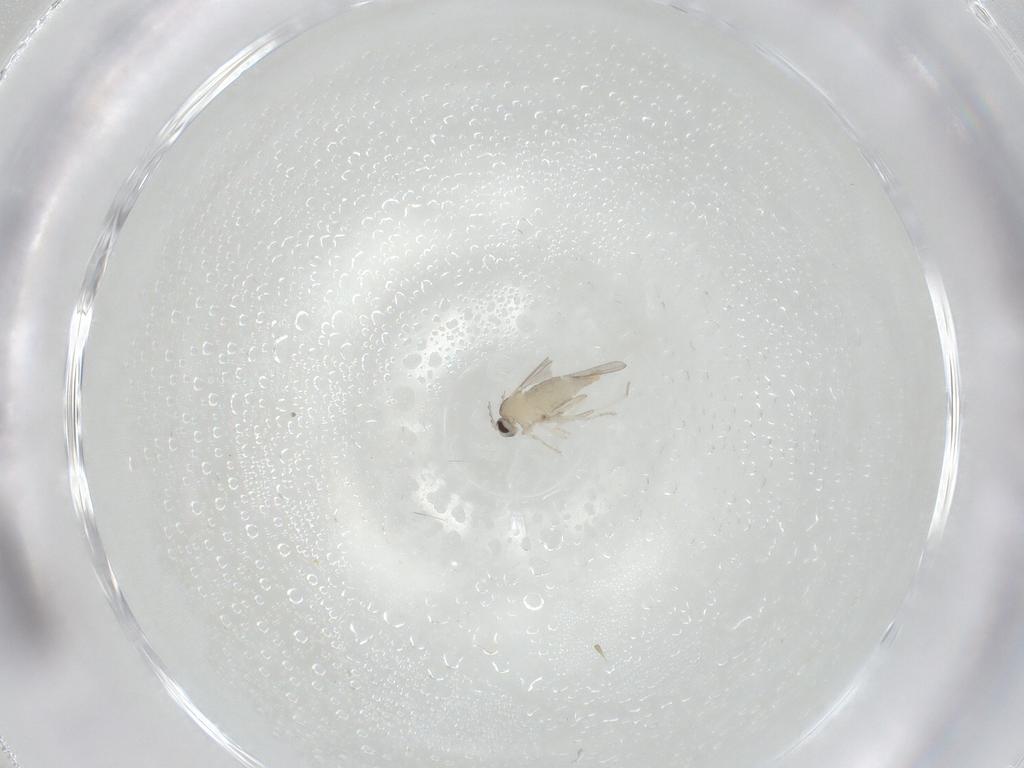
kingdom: Animalia
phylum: Arthropoda
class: Insecta
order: Diptera
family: Cecidomyiidae
